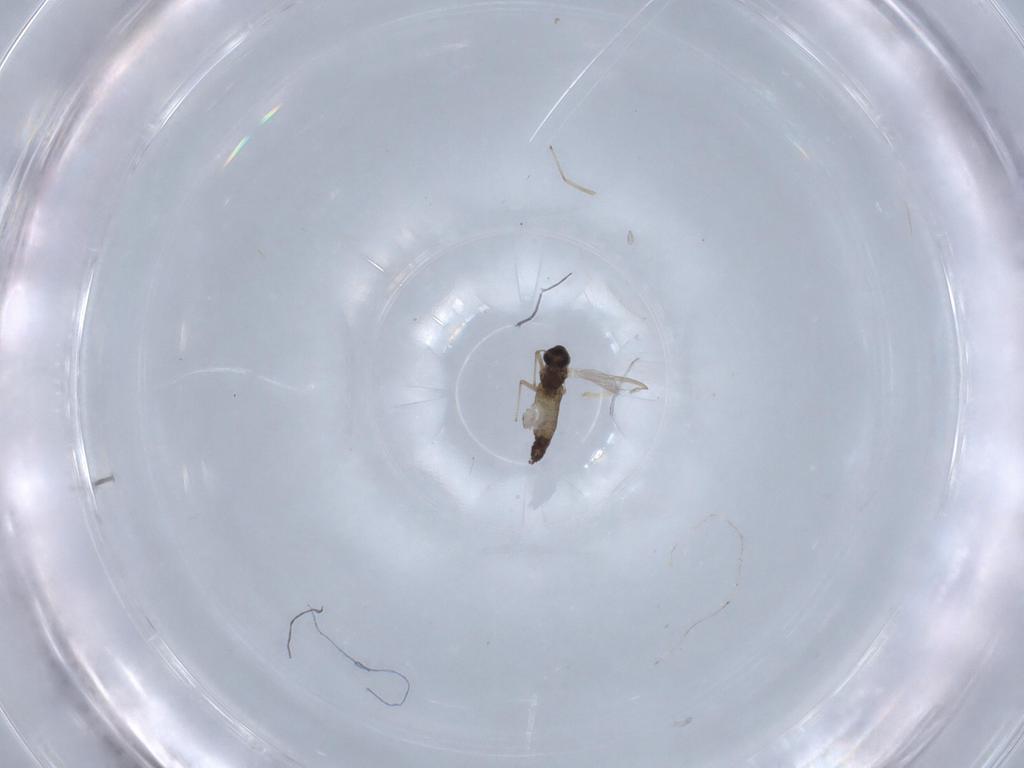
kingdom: Animalia
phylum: Arthropoda
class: Insecta
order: Diptera
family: Chironomidae
